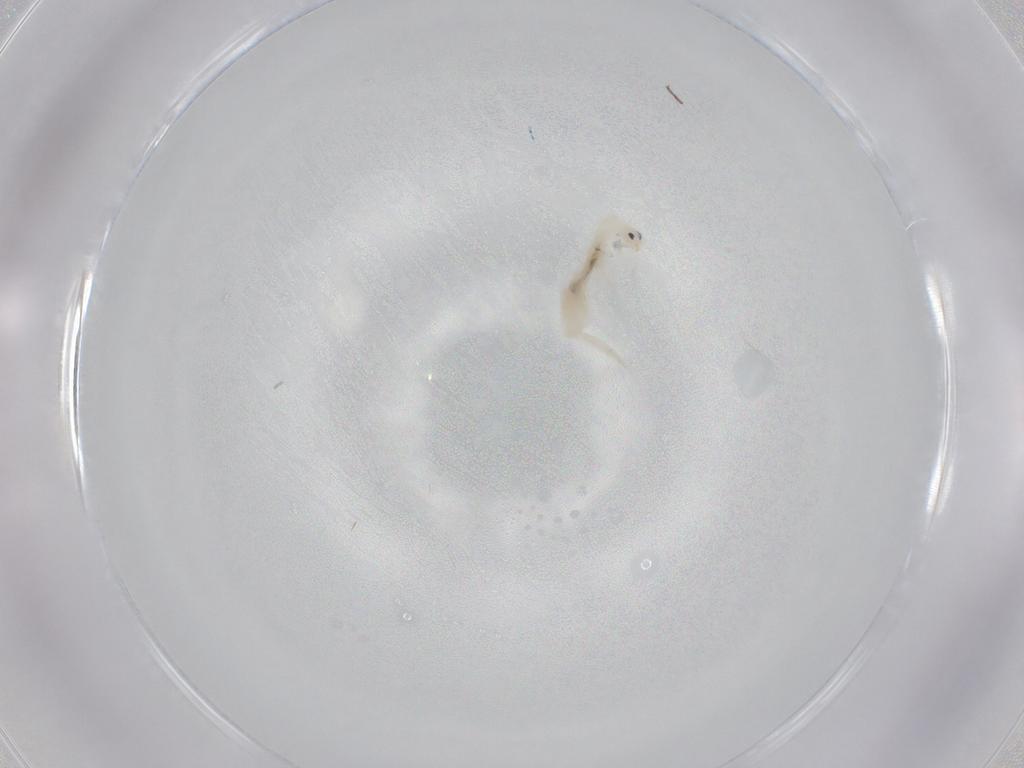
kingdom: Animalia
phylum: Arthropoda
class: Collembola
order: Entomobryomorpha
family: Entomobryidae
